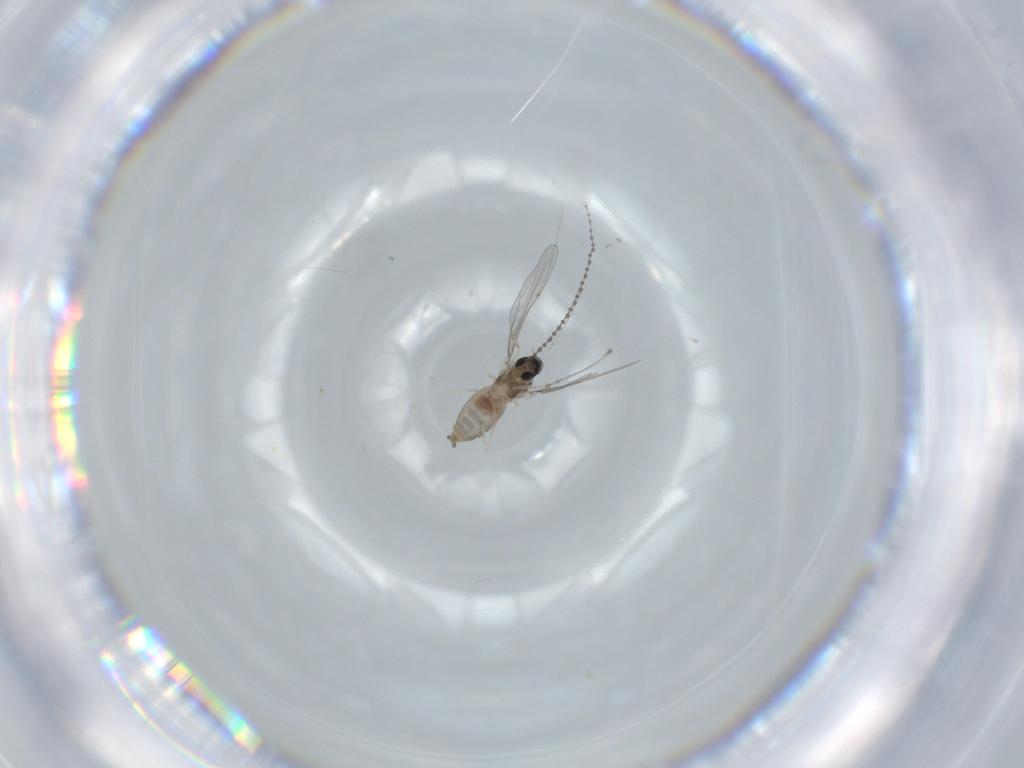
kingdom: Animalia
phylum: Arthropoda
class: Insecta
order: Diptera
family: Cecidomyiidae
